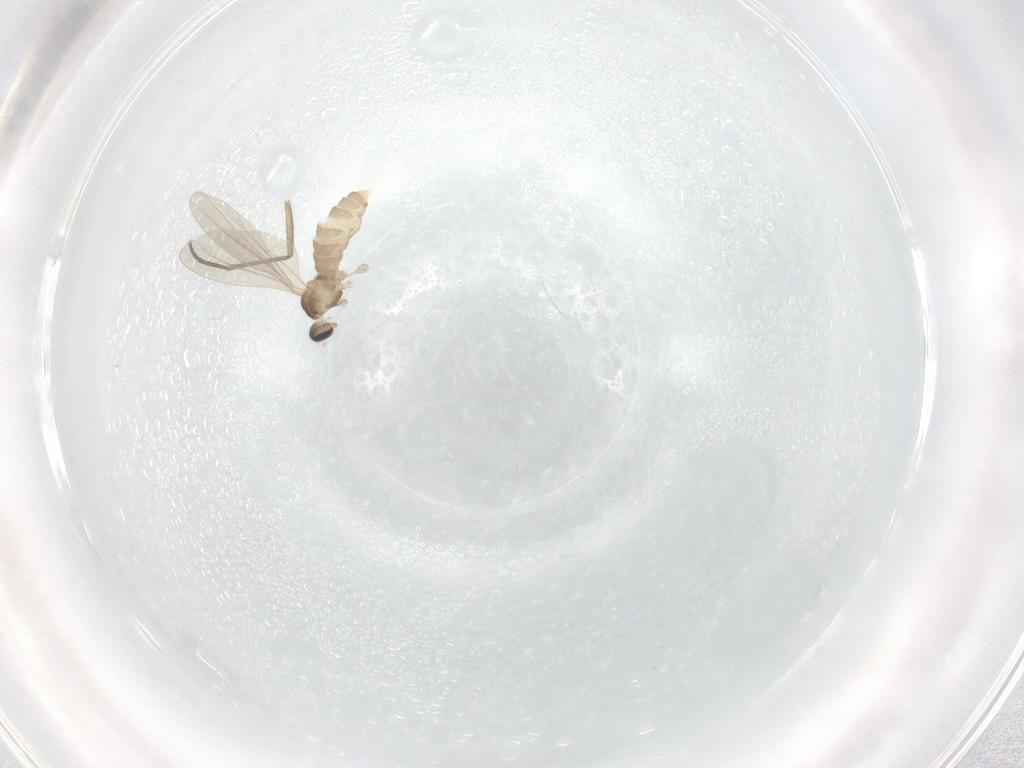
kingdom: Animalia
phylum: Arthropoda
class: Insecta
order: Diptera
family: Cecidomyiidae
